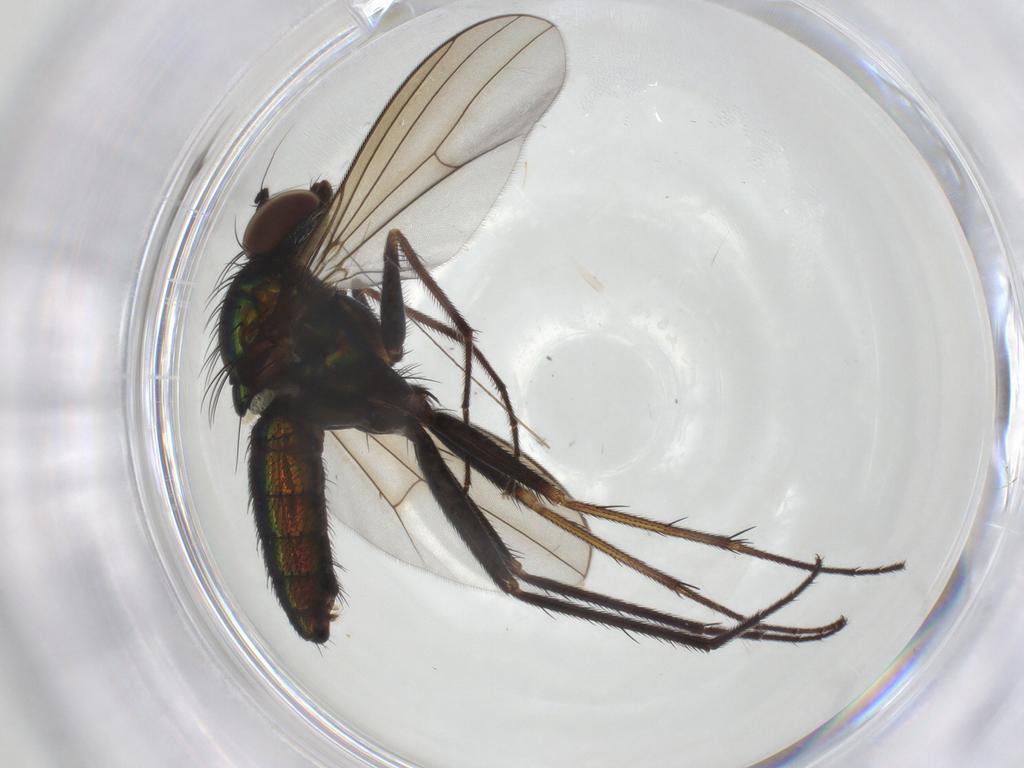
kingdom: Animalia
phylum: Arthropoda
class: Insecta
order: Diptera
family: Dolichopodidae
